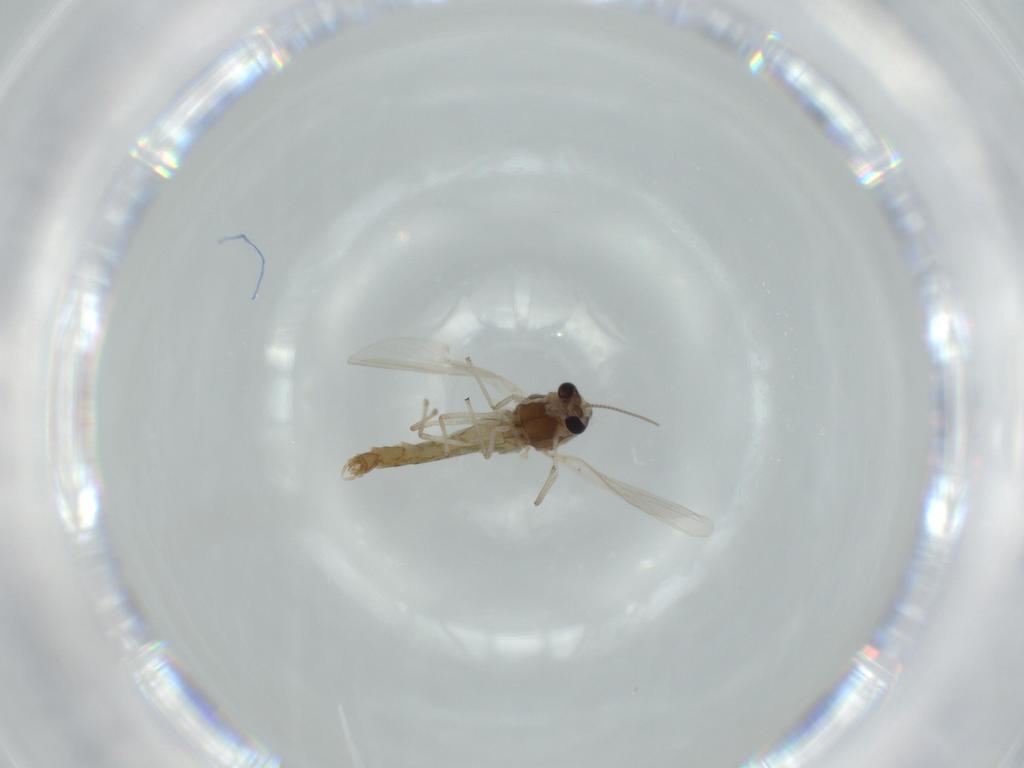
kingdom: Animalia
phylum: Arthropoda
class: Insecta
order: Diptera
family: Chironomidae
